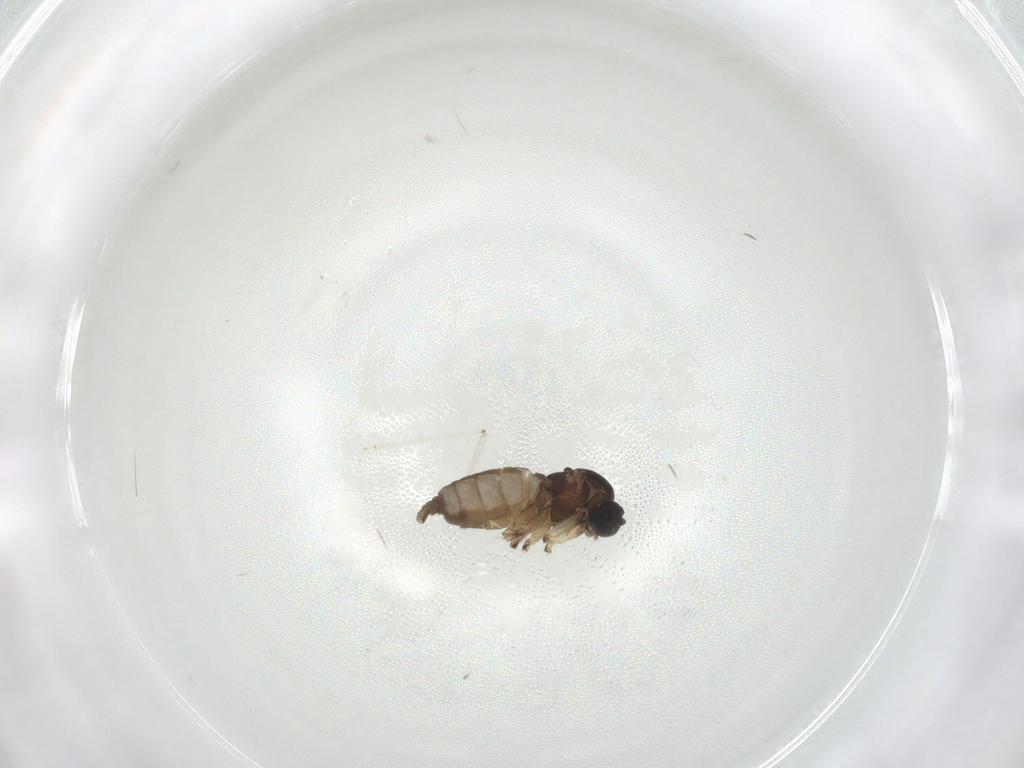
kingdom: Animalia
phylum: Arthropoda
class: Insecta
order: Diptera
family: Sciaridae
